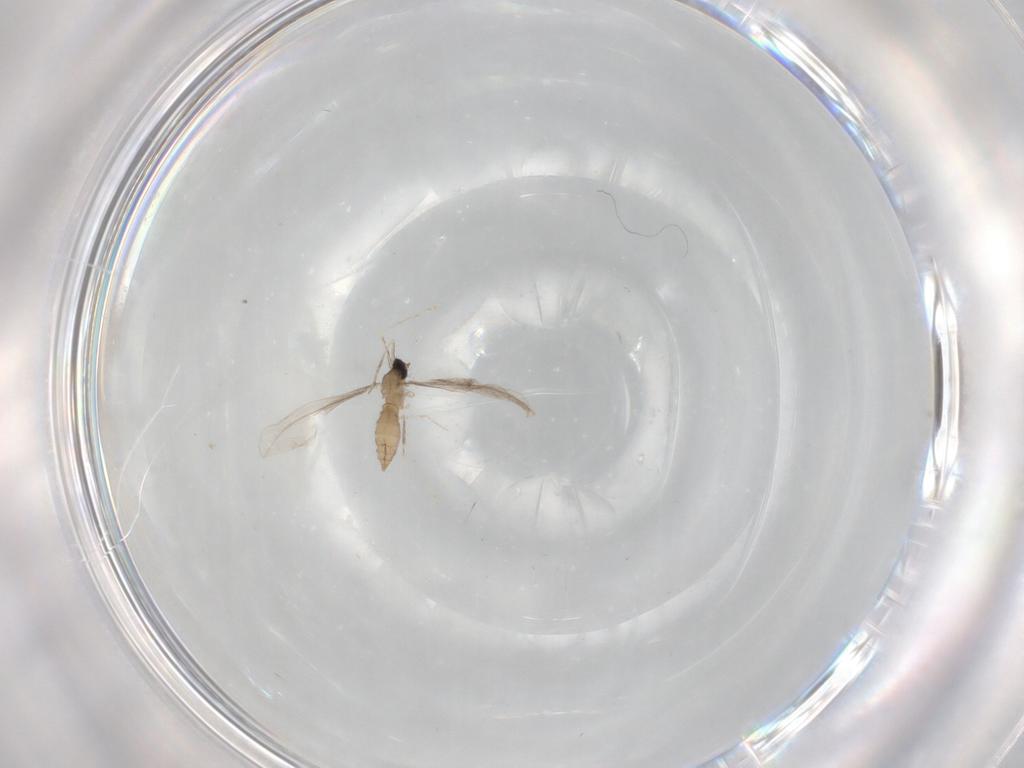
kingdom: Animalia
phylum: Arthropoda
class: Insecta
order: Diptera
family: Cecidomyiidae
